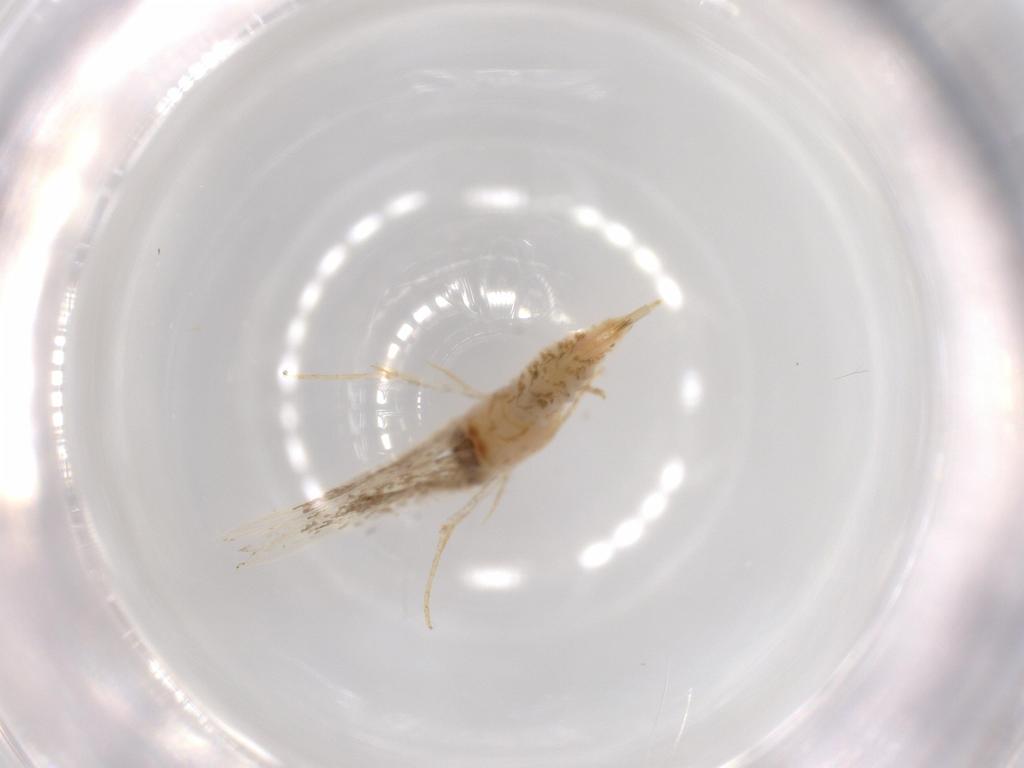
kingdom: Animalia
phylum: Arthropoda
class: Insecta
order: Lepidoptera
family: Tineidae
